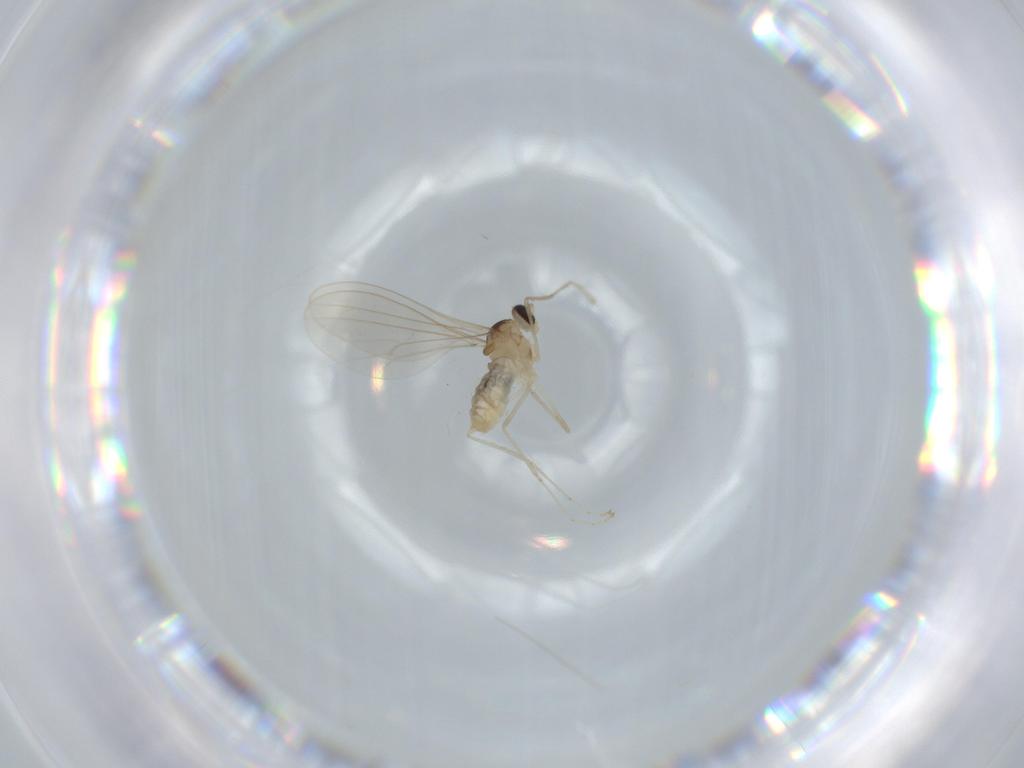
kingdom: Animalia
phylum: Arthropoda
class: Insecta
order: Diptera
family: Cecidomyiidae
